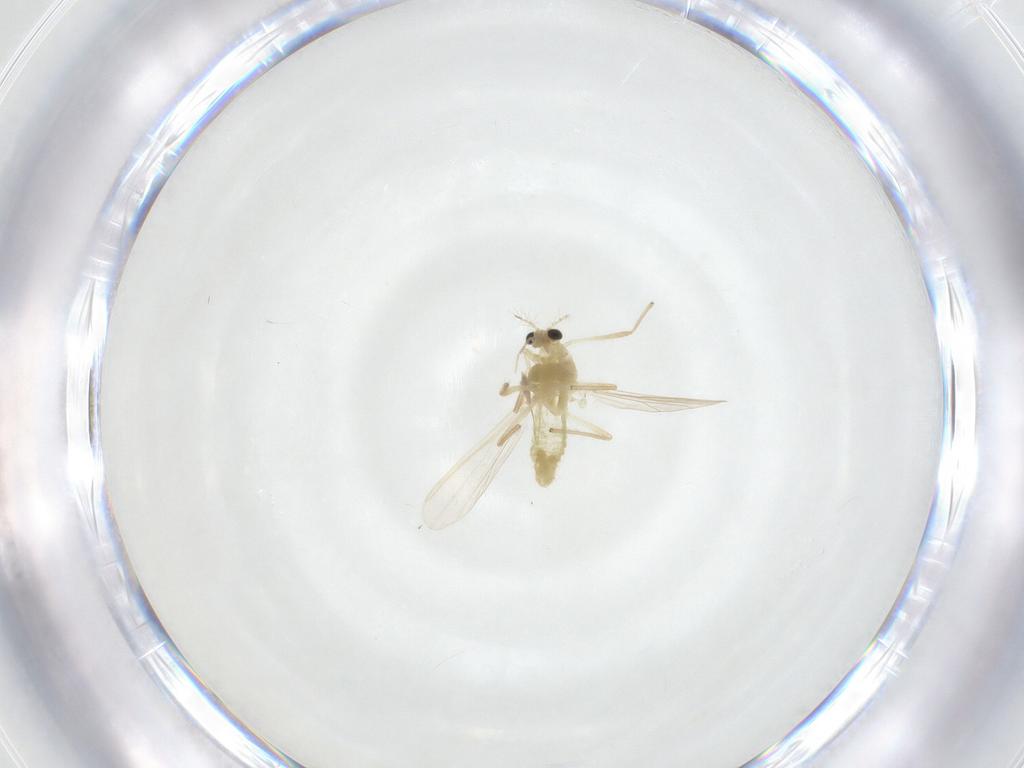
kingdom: Animalia
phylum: Arthropoda
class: Insecta
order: Diptera
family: Chironomidae
